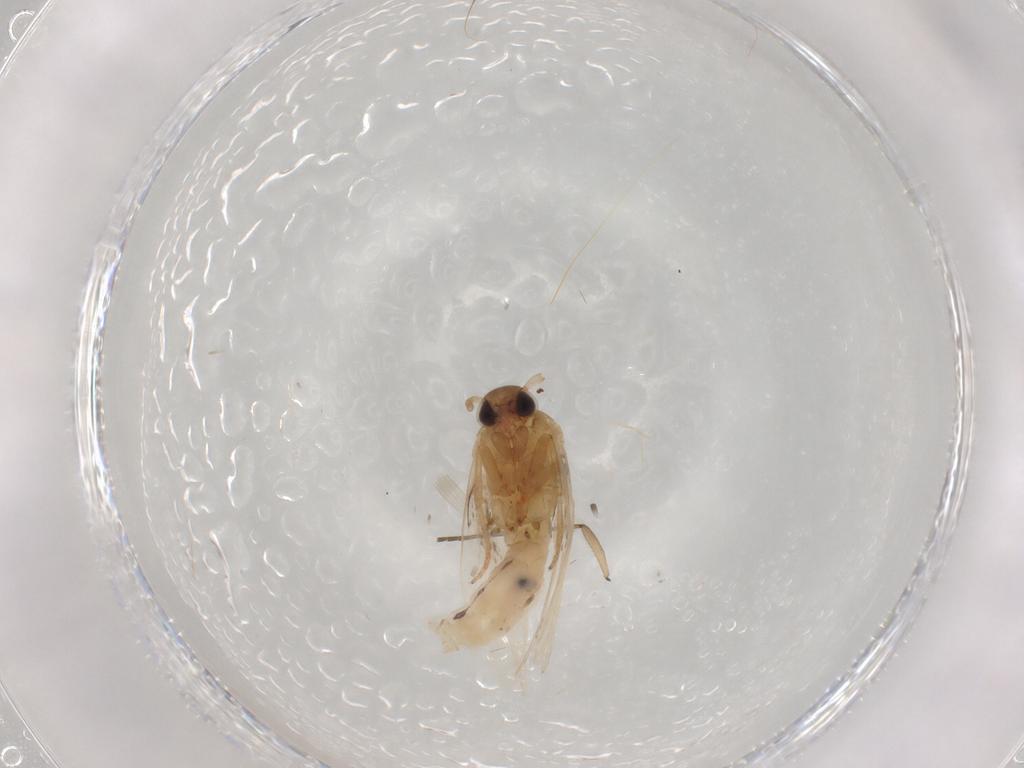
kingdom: Animalia
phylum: Arthropoda
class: Insecta
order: Lepidoptera
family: Elachistidae
